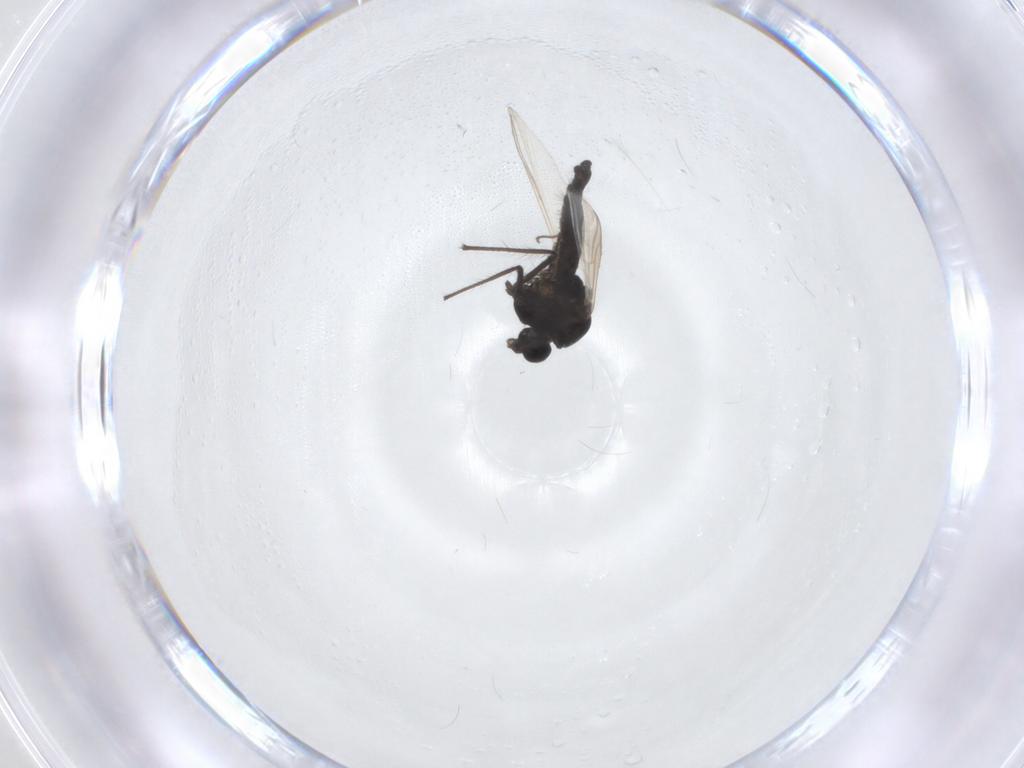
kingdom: Animalia
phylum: Arthropoda
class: Insecta
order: Diptera
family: Chironomidae
